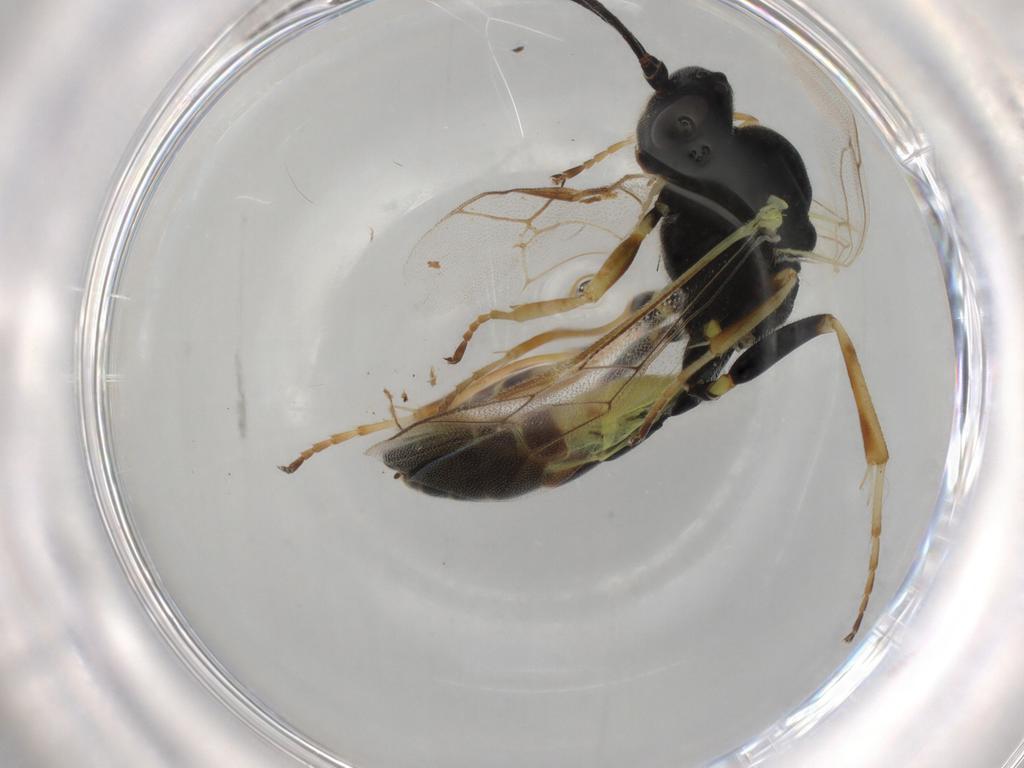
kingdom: Animalia
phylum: Arthropoda
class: Insecta
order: Hymenoptera
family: Ichneumonidae
